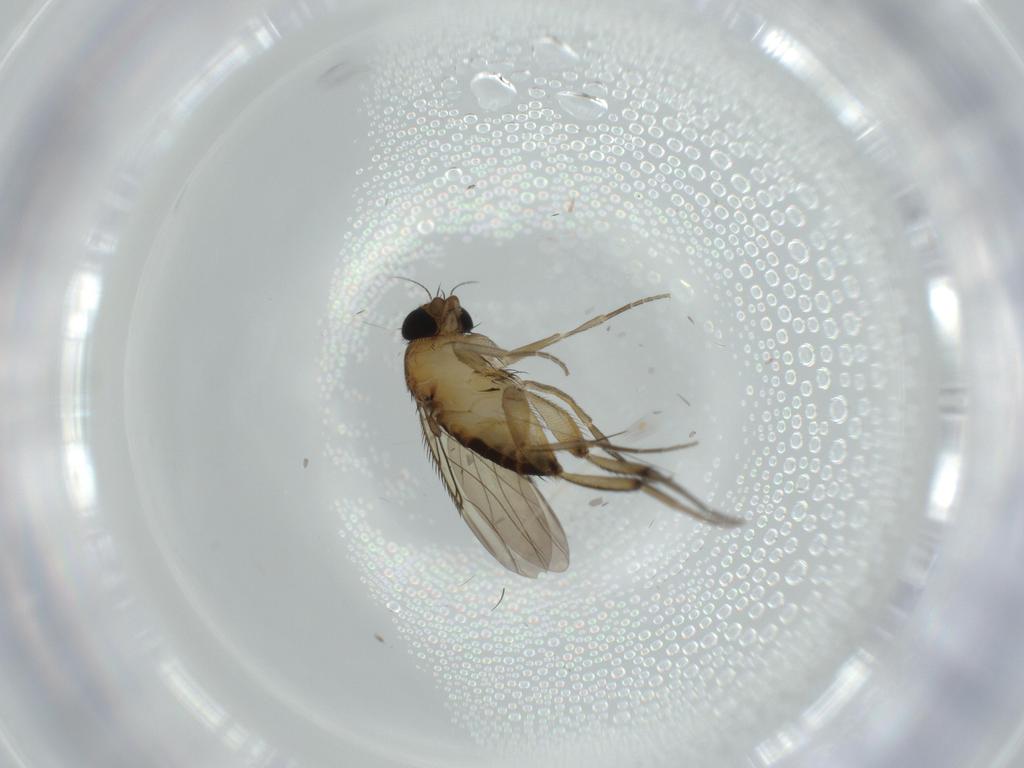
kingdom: Animalia
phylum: Arthropoda
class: Insecta
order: Diptera
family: Phoridae
